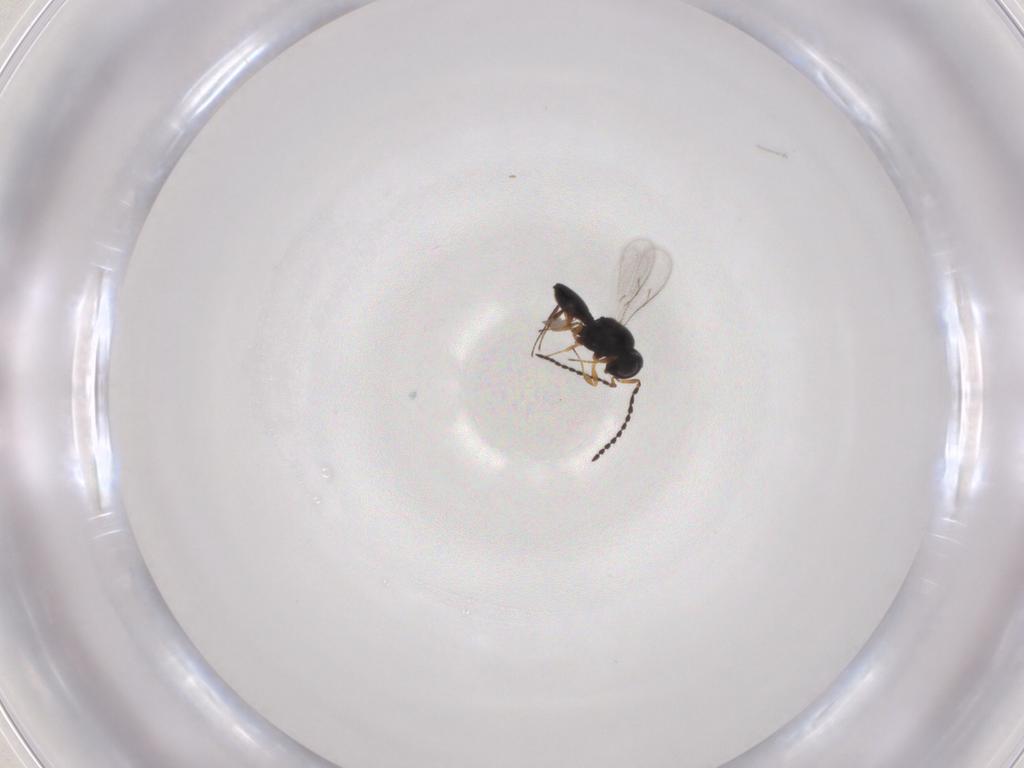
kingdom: Animalia
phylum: Arthropoda
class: Insecta
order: Hymenoptera
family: Scelionidae
